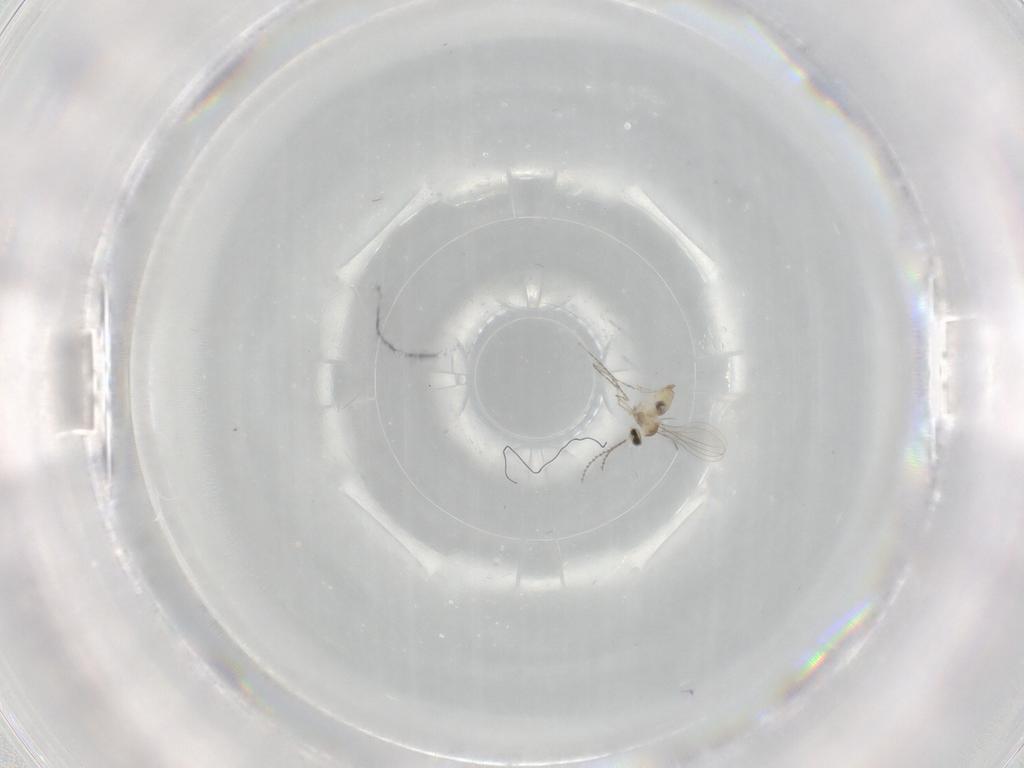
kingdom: Animalia
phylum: Arthropoda
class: Insecta
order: Diptera
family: Cecidomyiidae
